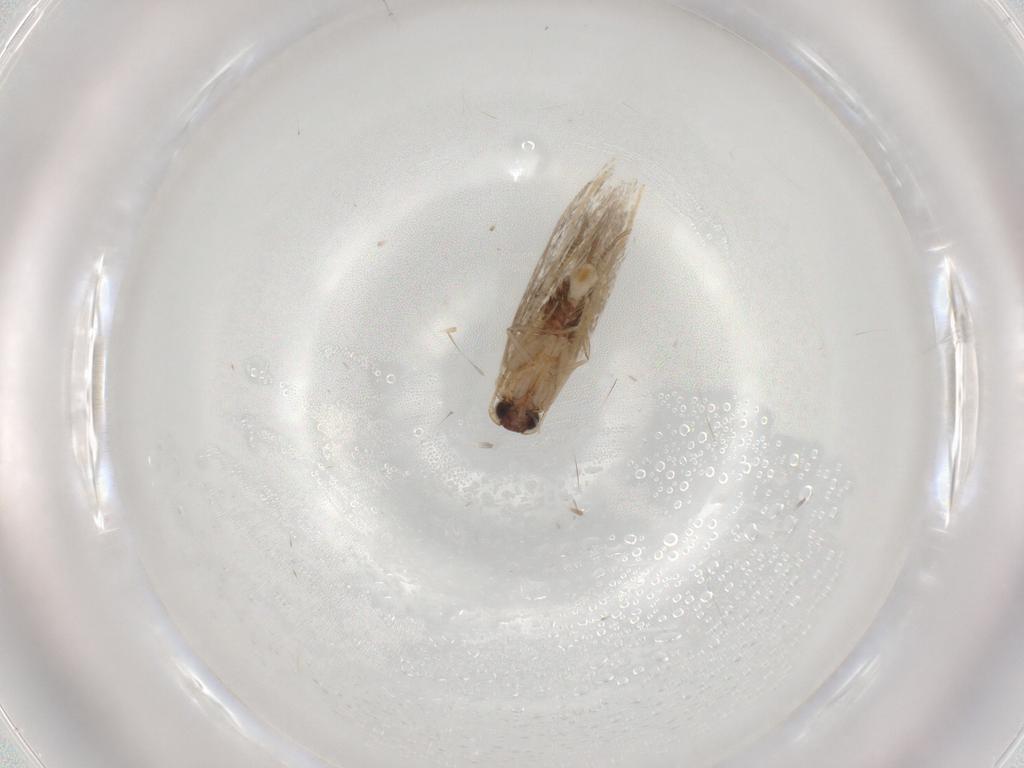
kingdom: Animalia
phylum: Arthropoda
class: Insecta
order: Lepidoptera
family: Tineidae
